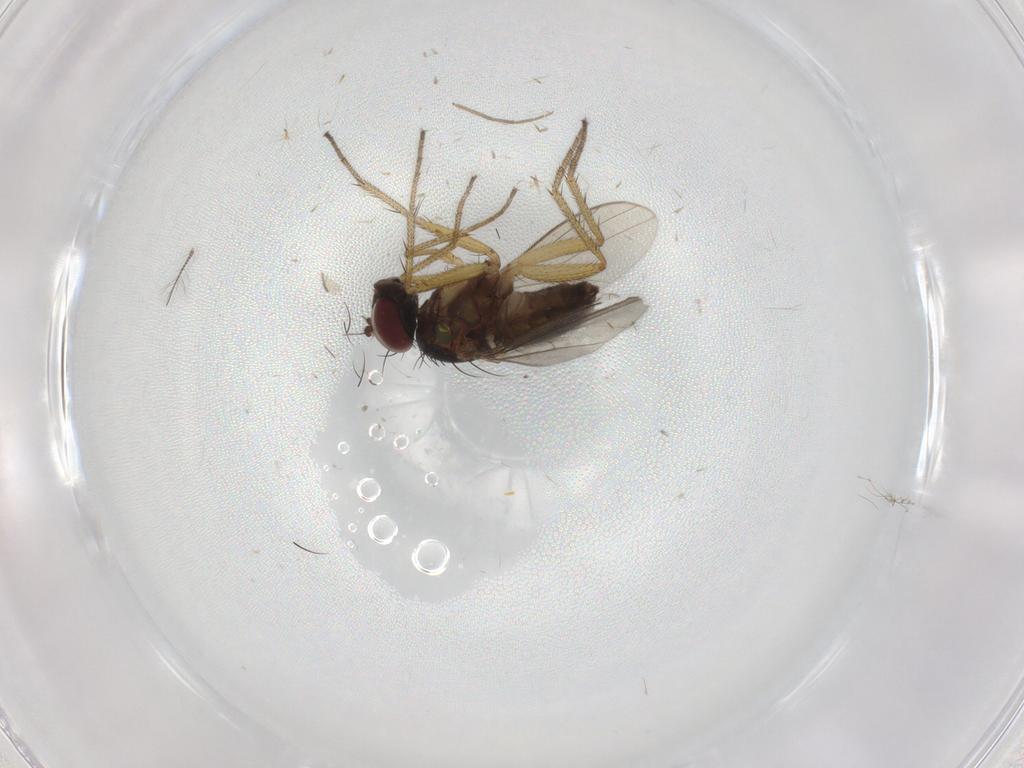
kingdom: Animalia
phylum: Arthropoda
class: Insecta
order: Diptera
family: Chironomidae
